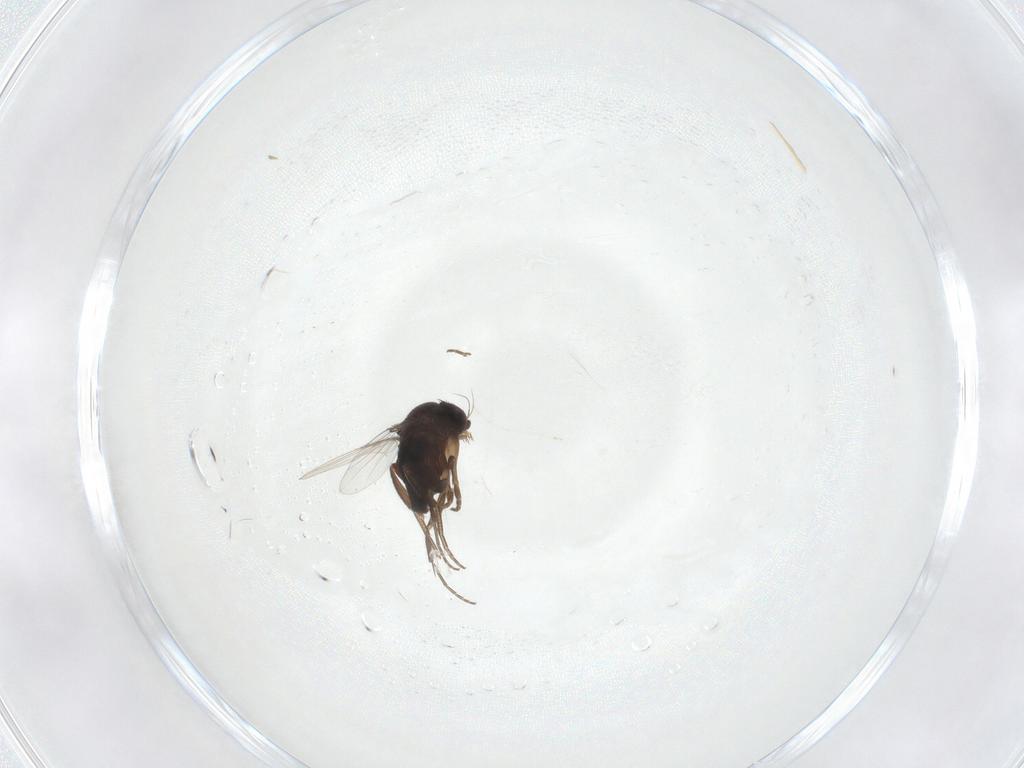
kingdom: Animalia
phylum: Arthropoda
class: Insecta
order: Diptera
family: Phoridae
